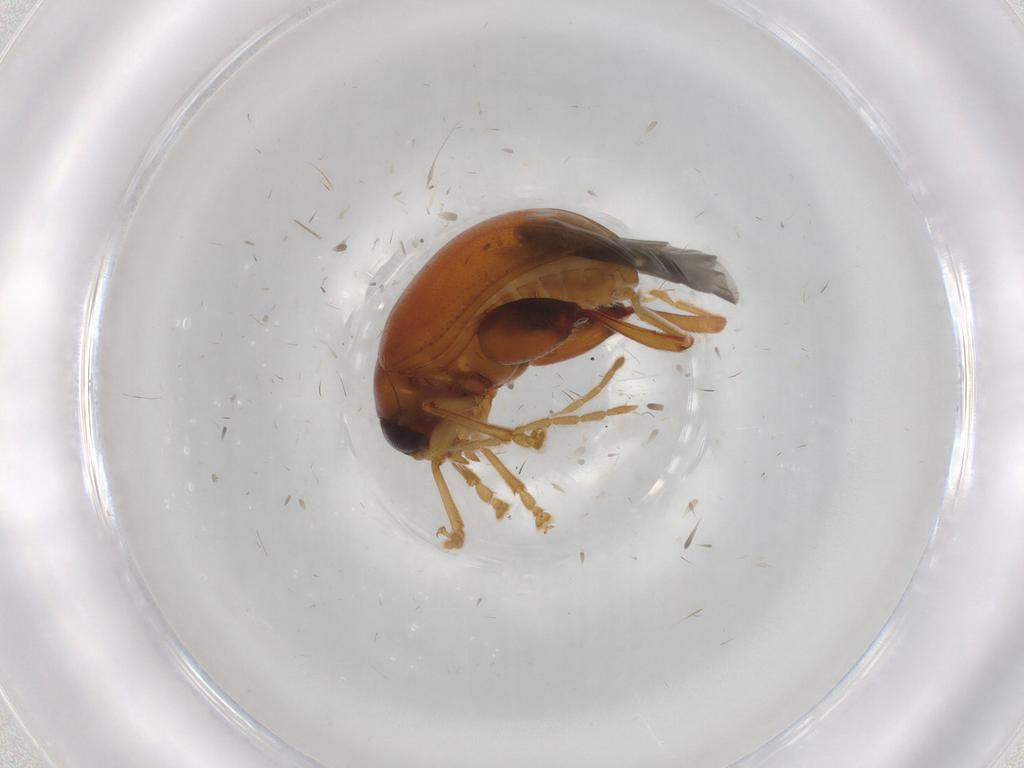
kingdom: Animalia
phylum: Arthropoda
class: Insecta
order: Coleoptera
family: Chrysomelidae
